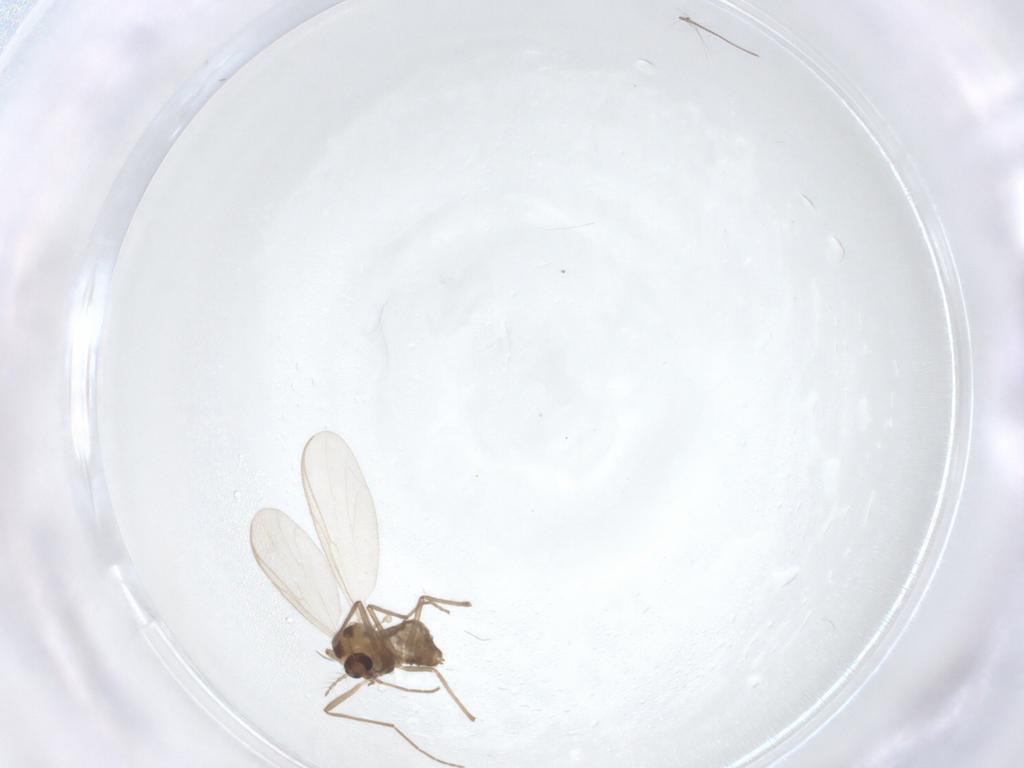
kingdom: Animalia
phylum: Arthropoda
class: Insecta
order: Diptera
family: Chironomidae
